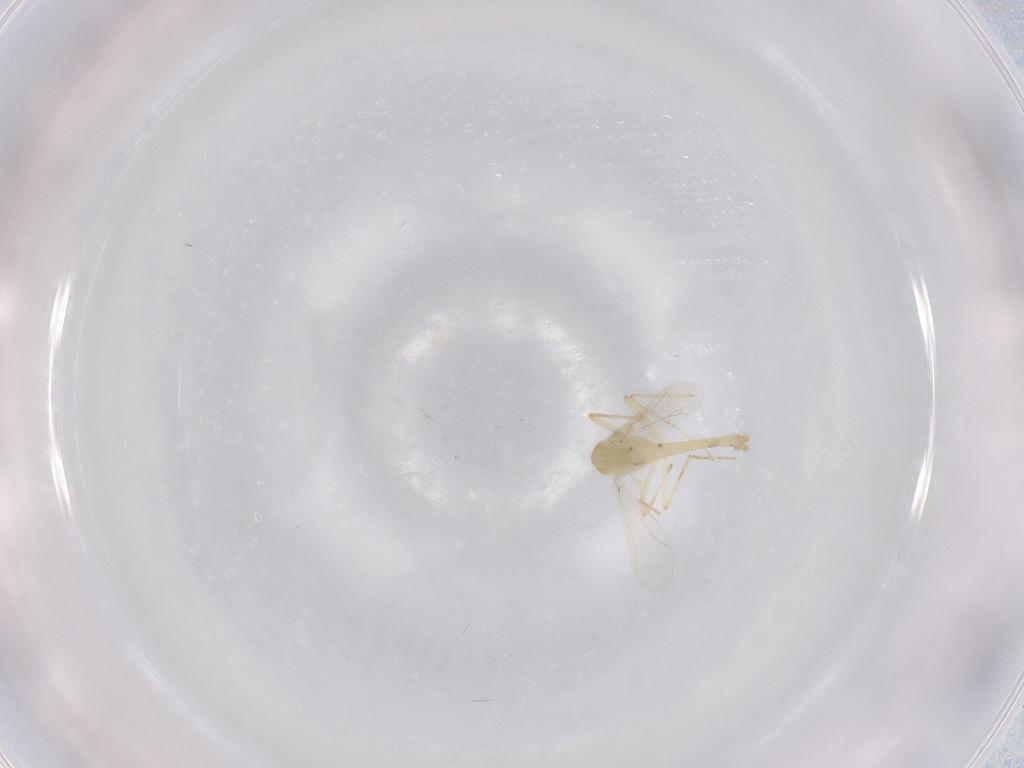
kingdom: Animalia
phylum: Arthropoda
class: Insecta
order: Diptera
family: Chironomidae
